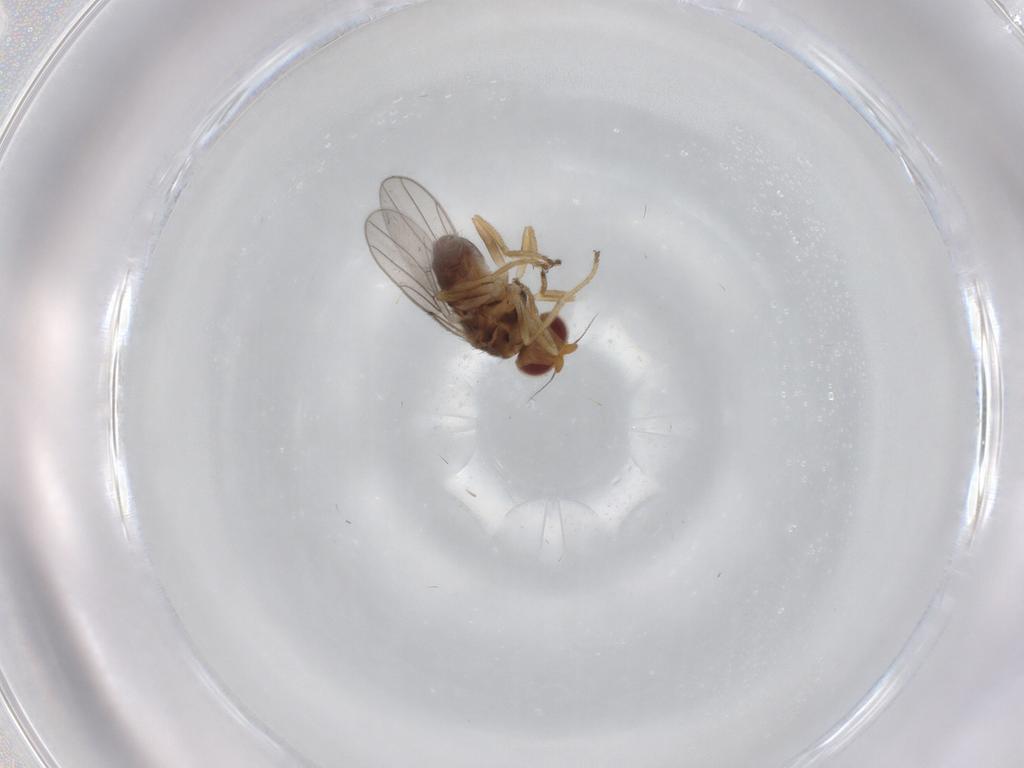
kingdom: Animalia
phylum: Arthropoda
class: Insecta
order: Diptera
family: Chloropidae
